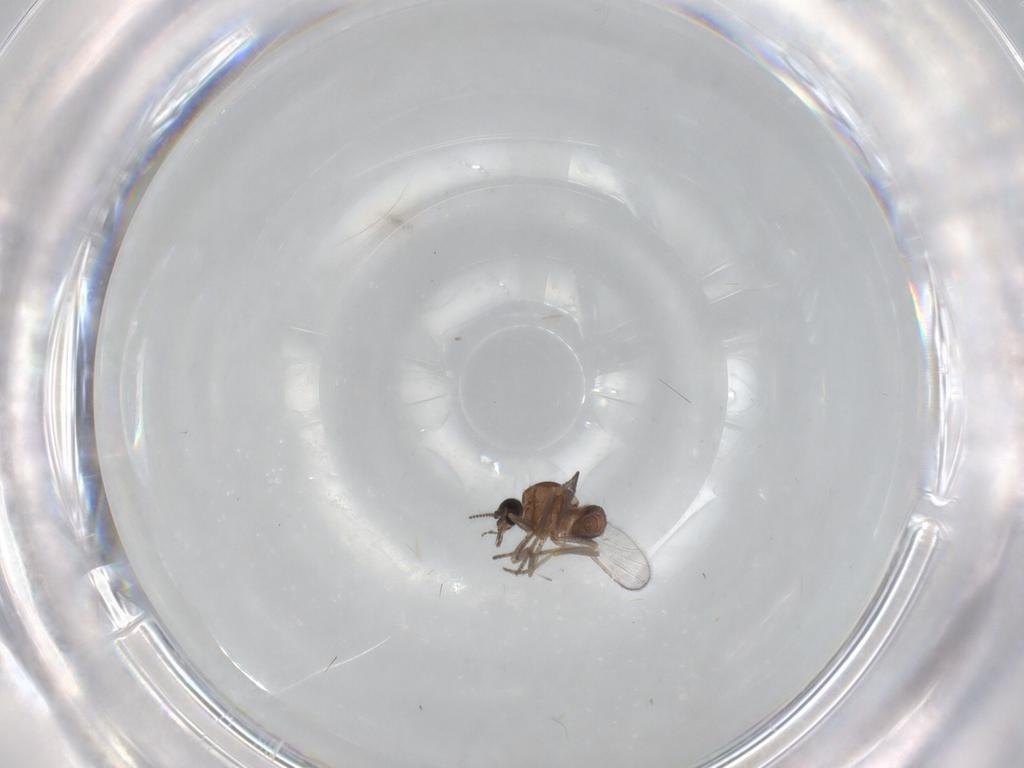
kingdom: Animalia
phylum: Arthropoda
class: Insecta
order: Diptera
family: Ceratopogonidae
